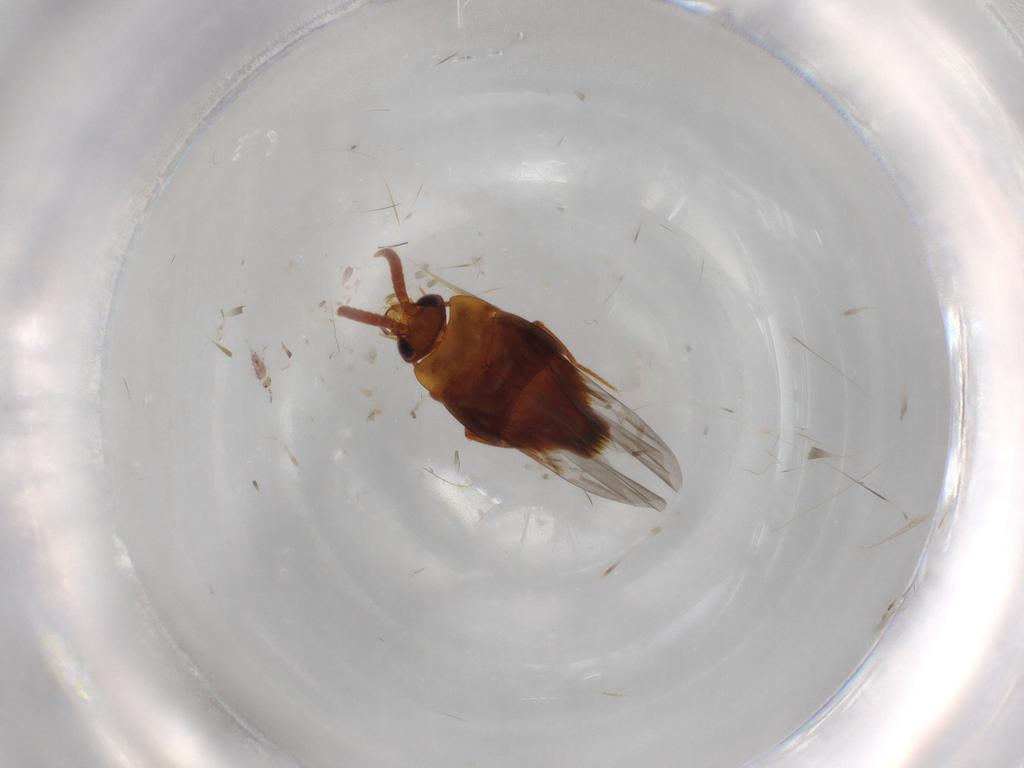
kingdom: Animalia
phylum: Arthropoda
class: Insecta
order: Coleoptera
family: Staphylinidae
